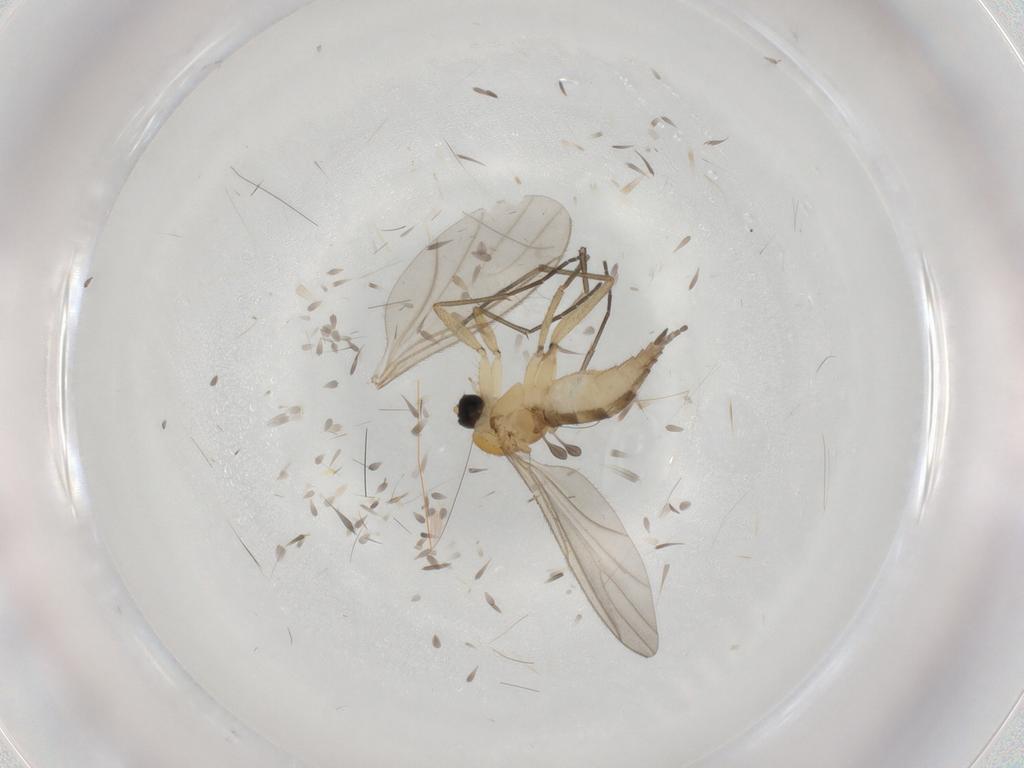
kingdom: Animalia
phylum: Arthropoda
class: Insecta
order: Diptera
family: Sciaridae
